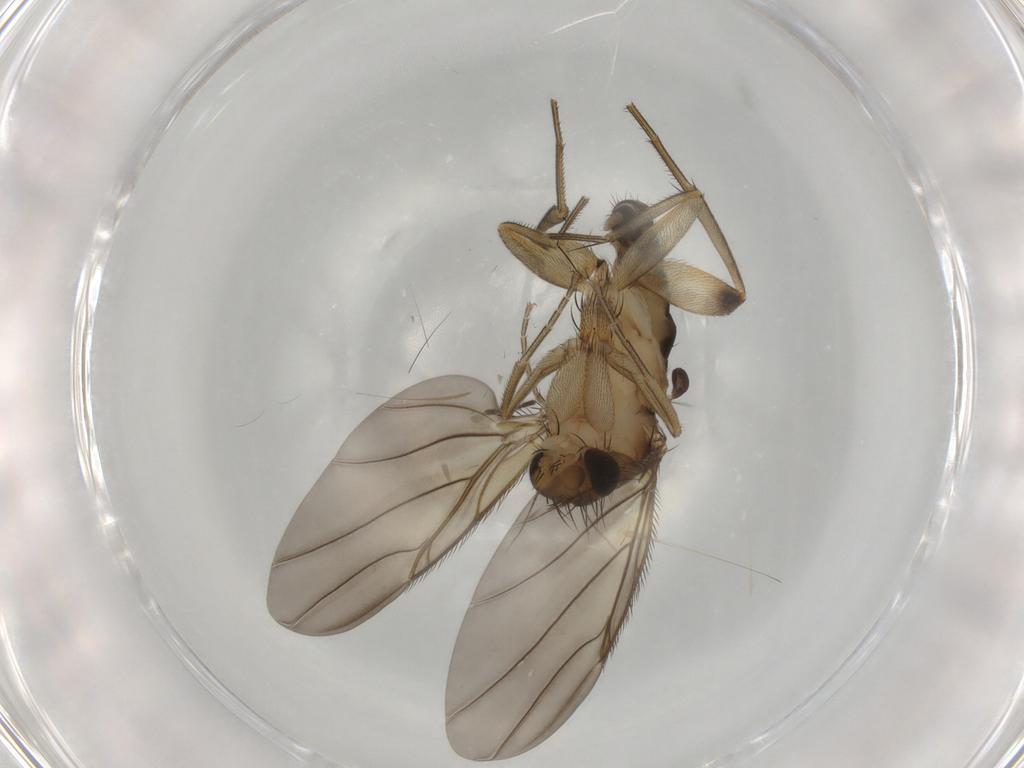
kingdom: Animalia
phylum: Arthropoda
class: Insecta
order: Diptera
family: Phoridae
